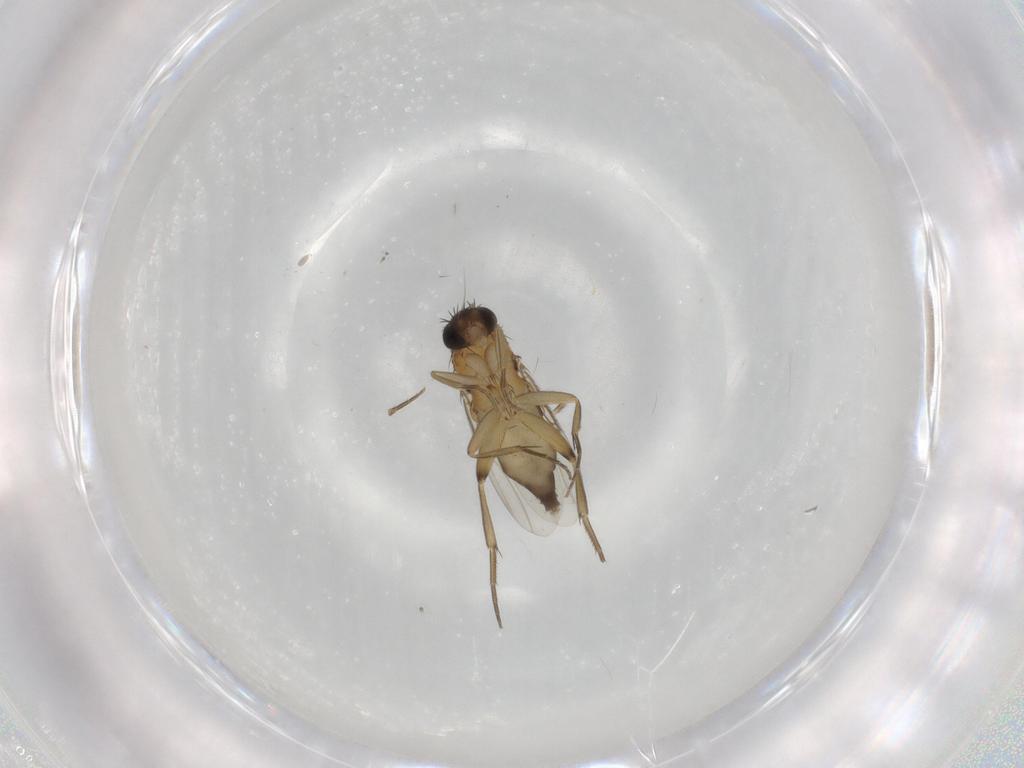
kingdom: Animalia
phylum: Arthropoda
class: Insecta
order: Diptera
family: Phoridae
